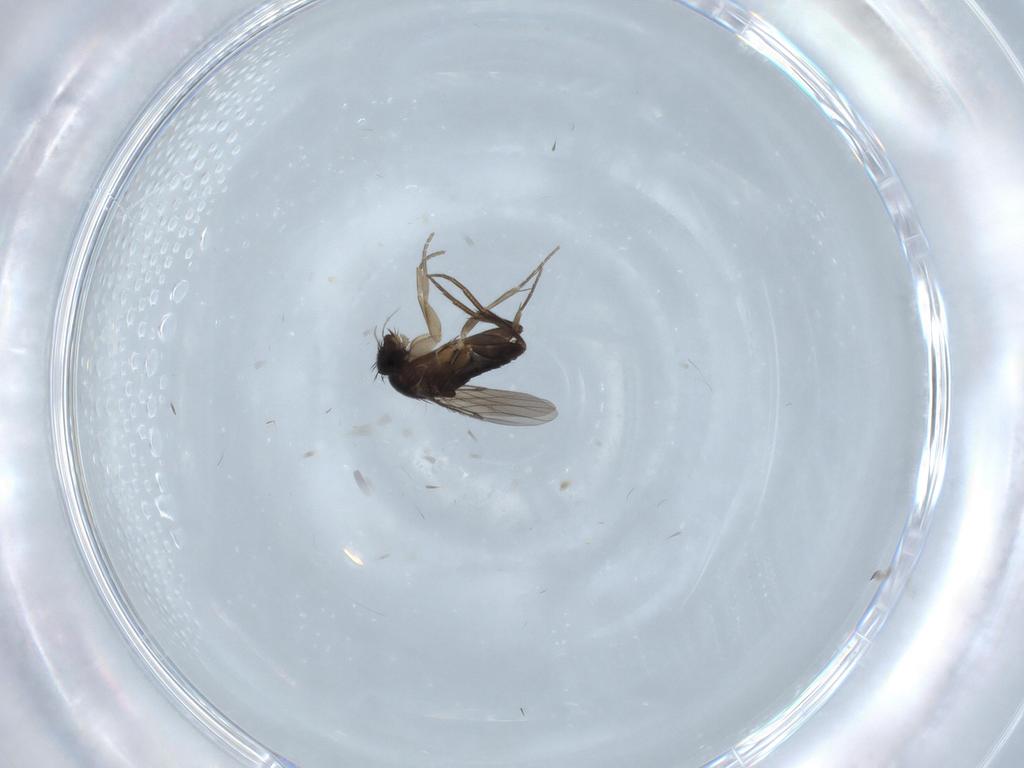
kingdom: Animalia
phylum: Arthropoda
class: Insecta
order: Diptera
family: Phoridae
